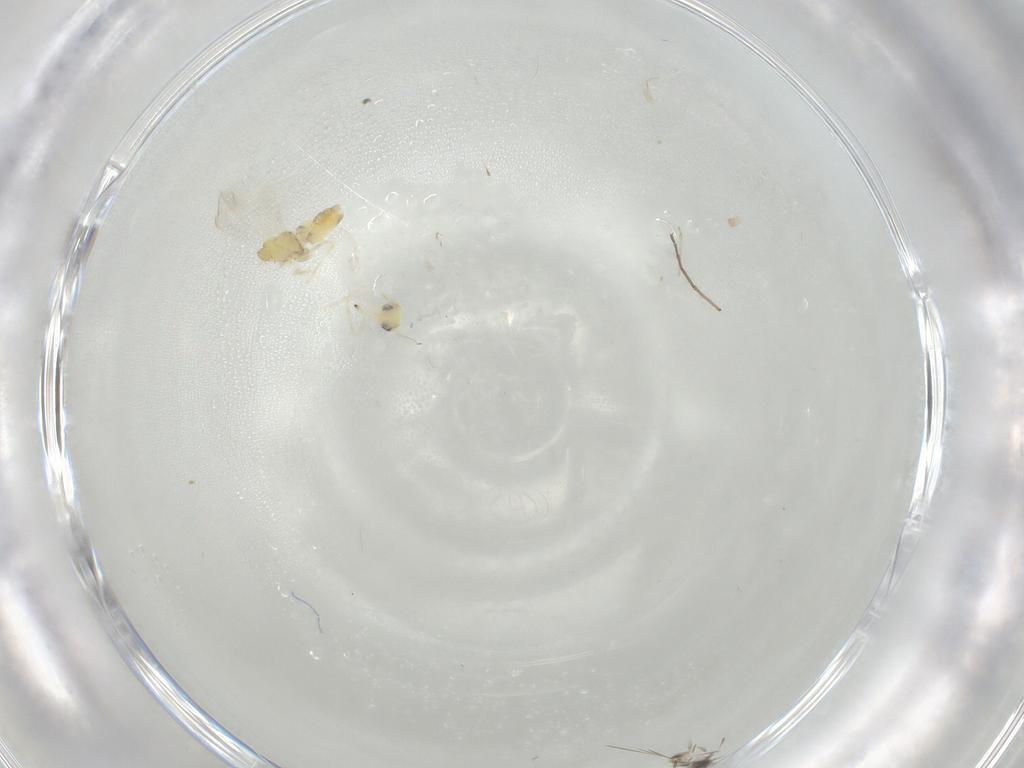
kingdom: Animalia
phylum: Arthropoda
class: Insecta
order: Hemiptera
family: Aleyrodidae
